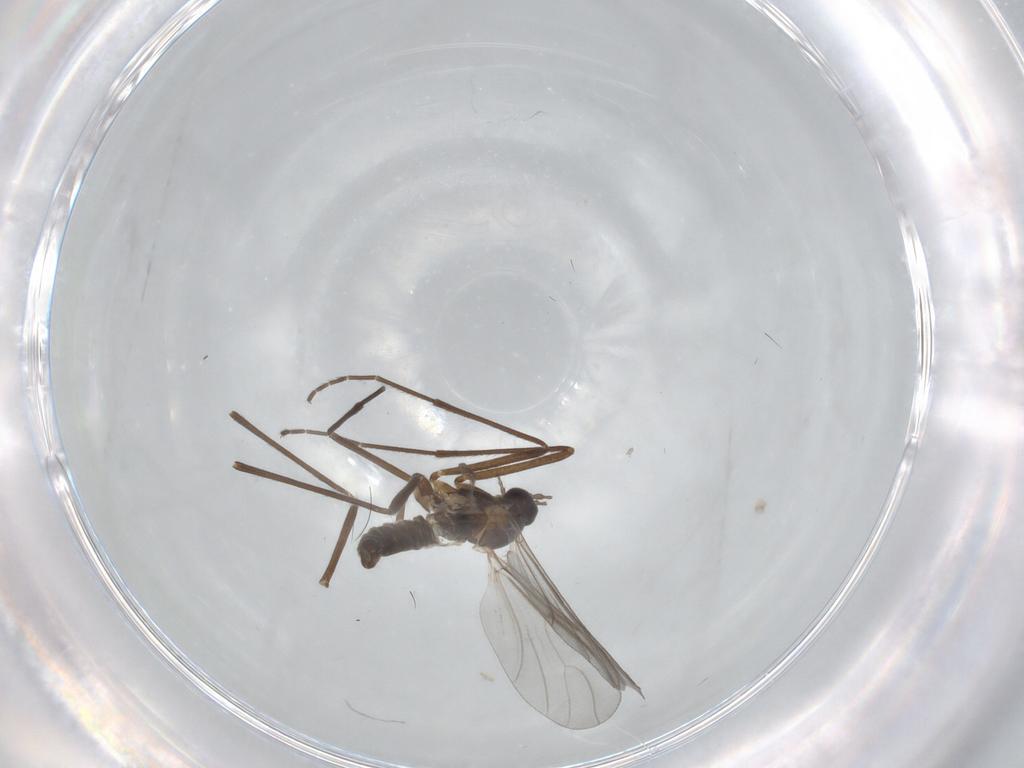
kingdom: Animalia
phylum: Arthropoda
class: Insecta
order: Diptera
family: Cecidomyiidae
